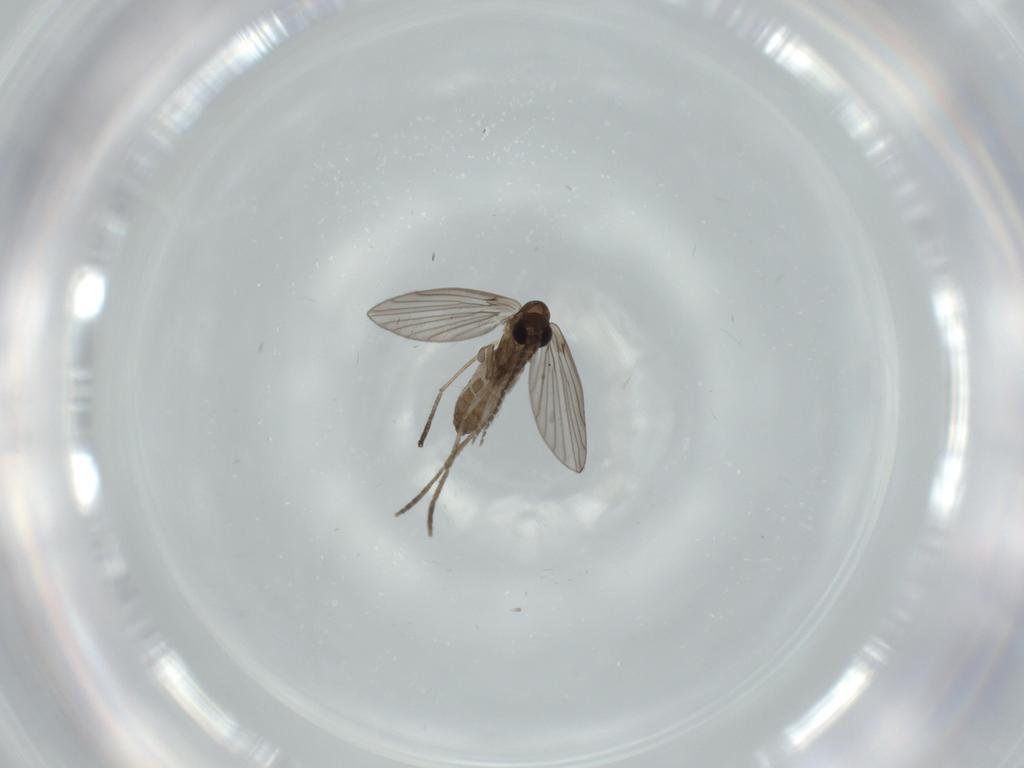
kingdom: Animalia
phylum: Arthropoda
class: Insecta
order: Diptera
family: Psychodidae
